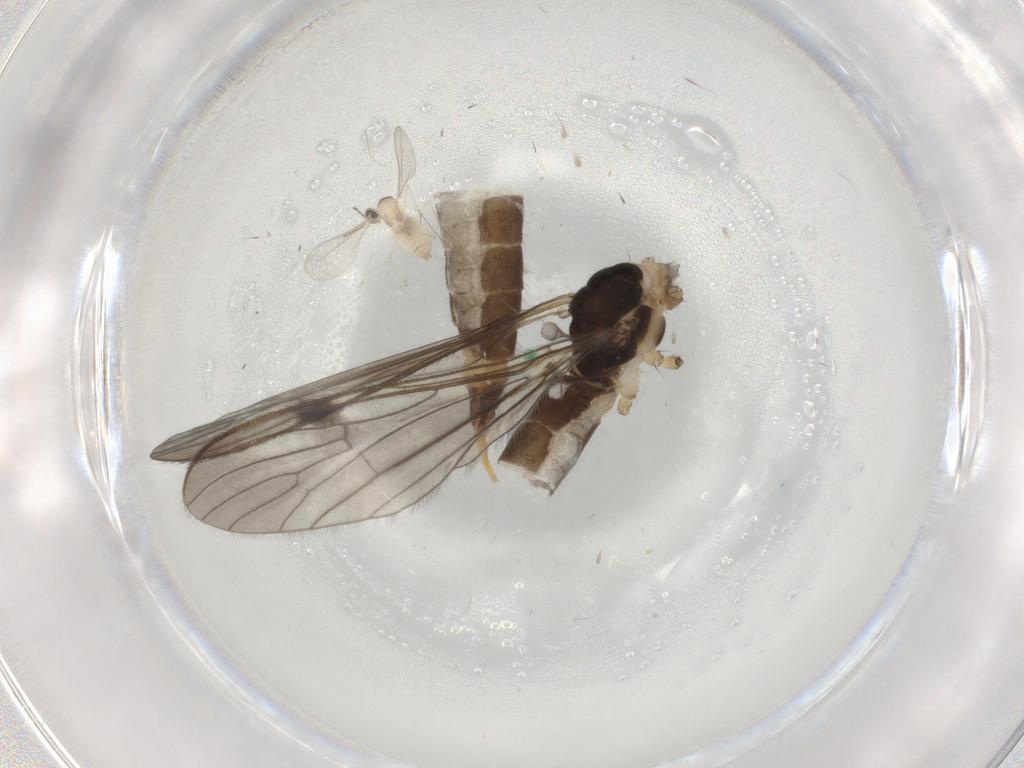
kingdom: Animalia
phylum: Arthropoda
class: Insecta
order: Diptera
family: Limoniidae
